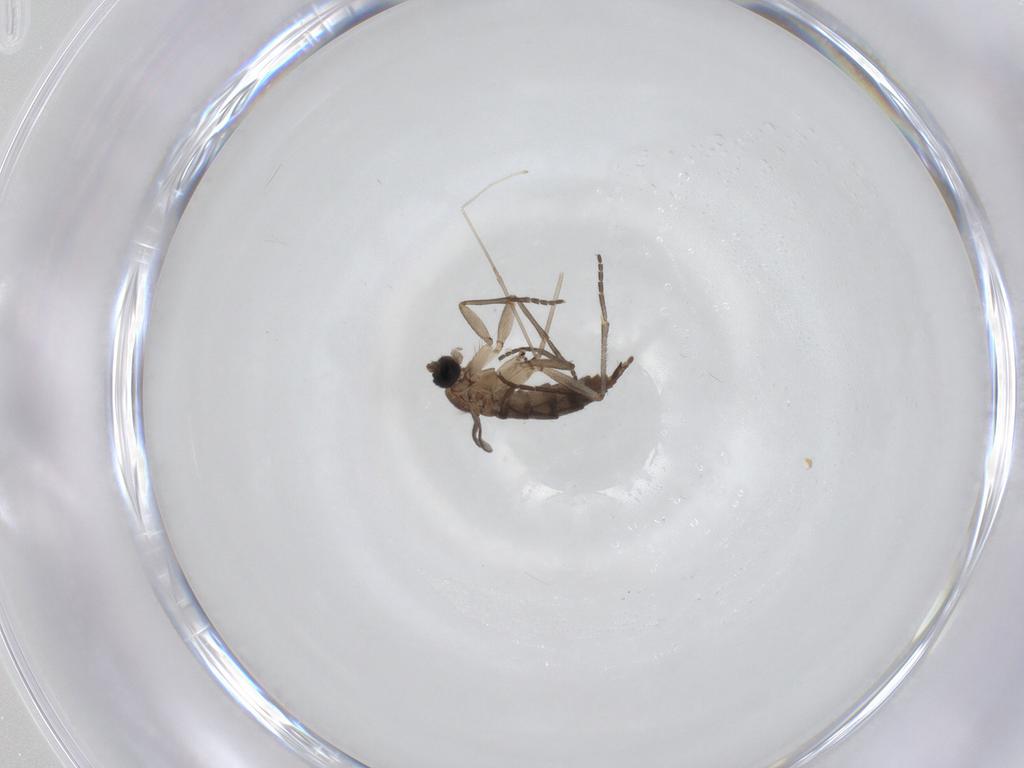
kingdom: Animalia
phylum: Arthropoda
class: Insecta
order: Diptera
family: Mycetophilidae
